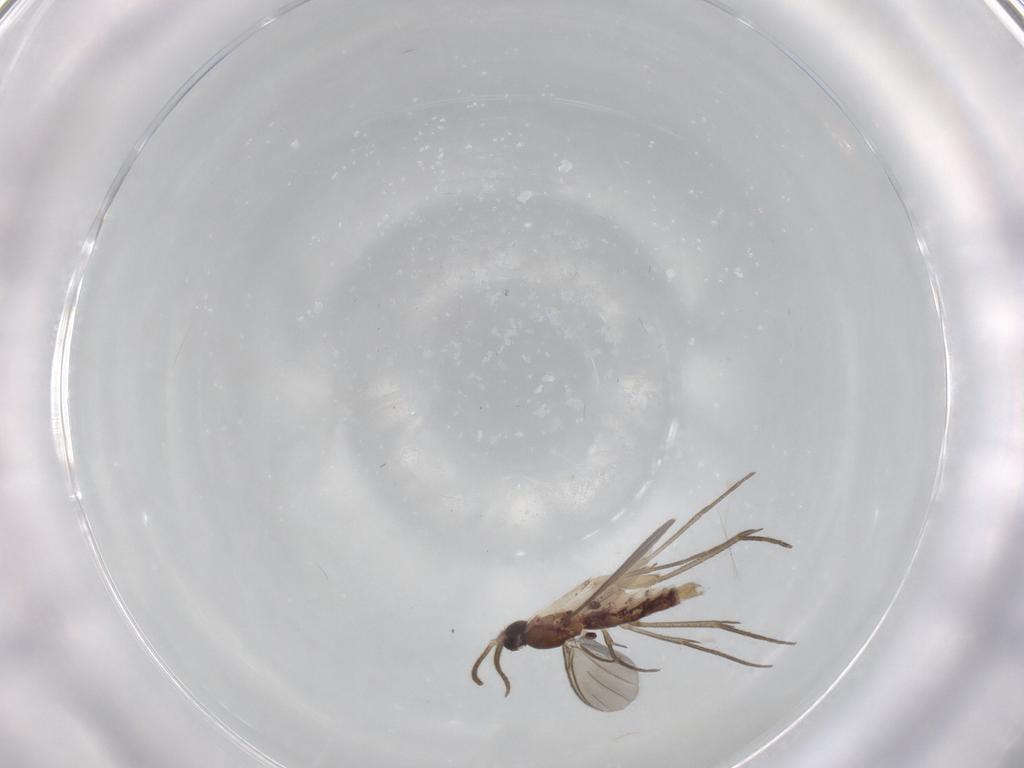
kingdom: Animalia
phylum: Arthropoda
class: Insecta
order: Diptera
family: Mycetophilidae
